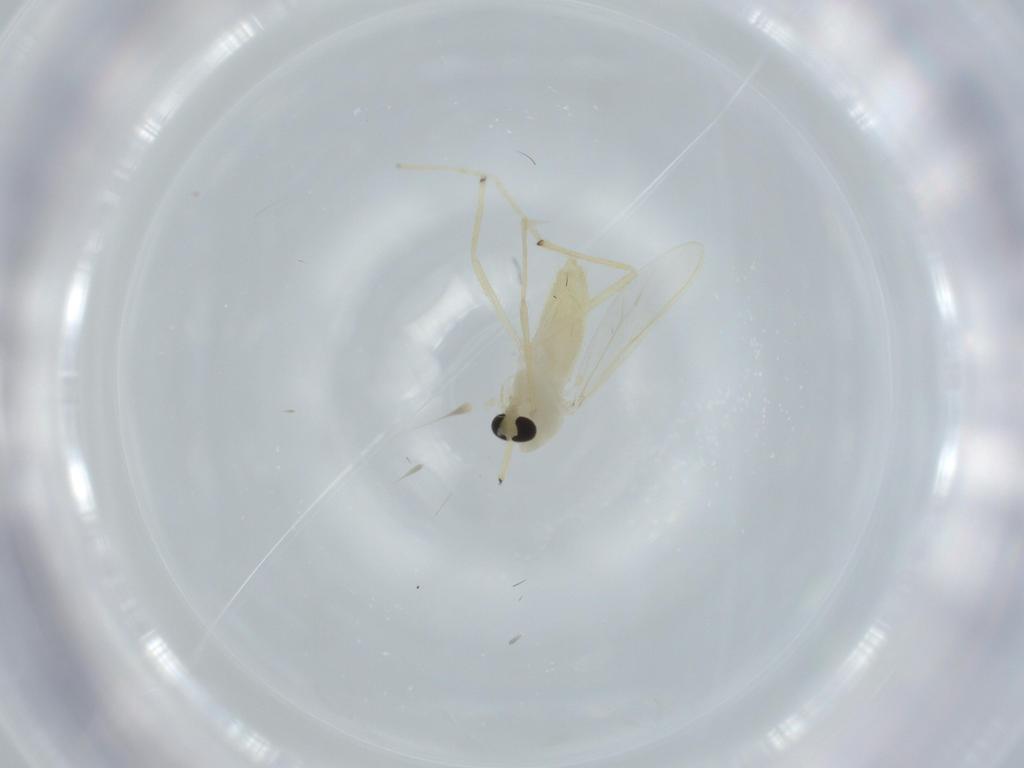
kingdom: Animalia
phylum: Arthropoda
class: Insecta
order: Diptera
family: Chironomidae
